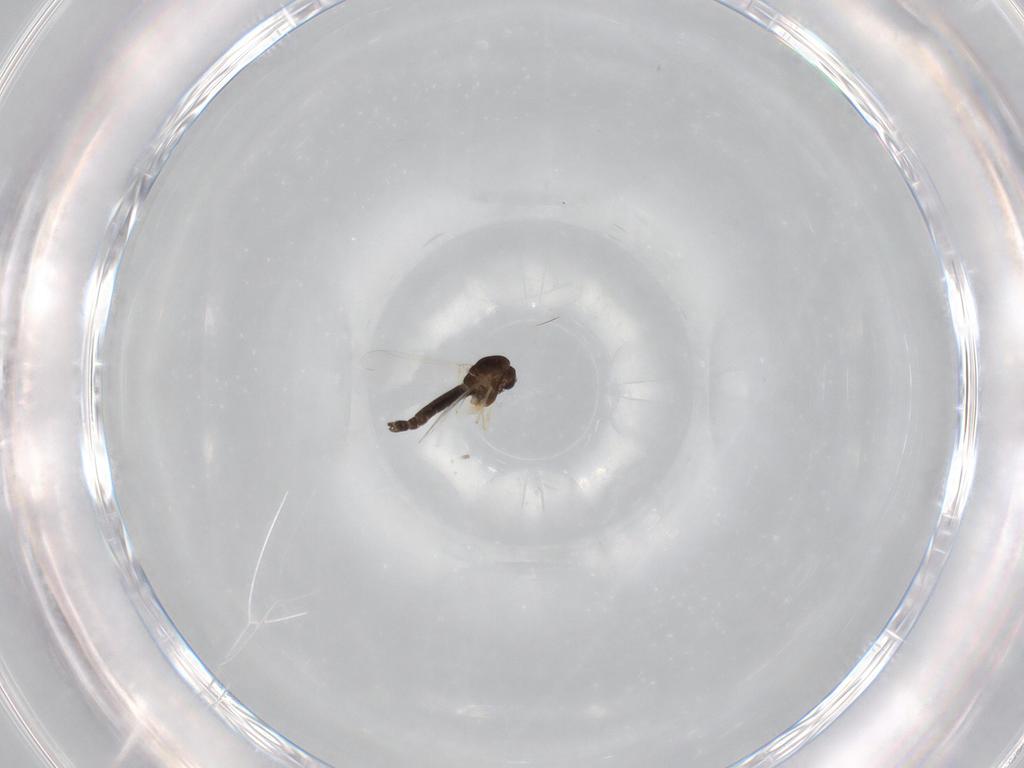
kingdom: Animalia
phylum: Arthropoda
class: Insecta
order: Diptera
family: Chironomidae
